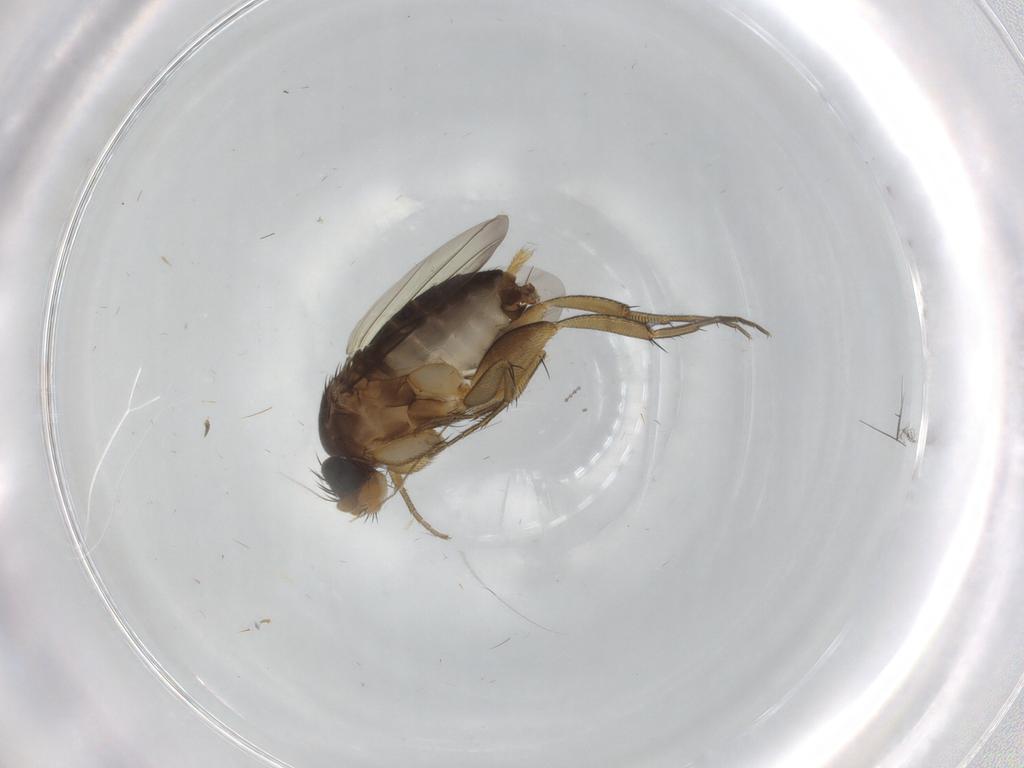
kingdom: Animalia
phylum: Arthropoda
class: Insecta
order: Diptera
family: Phoridae
